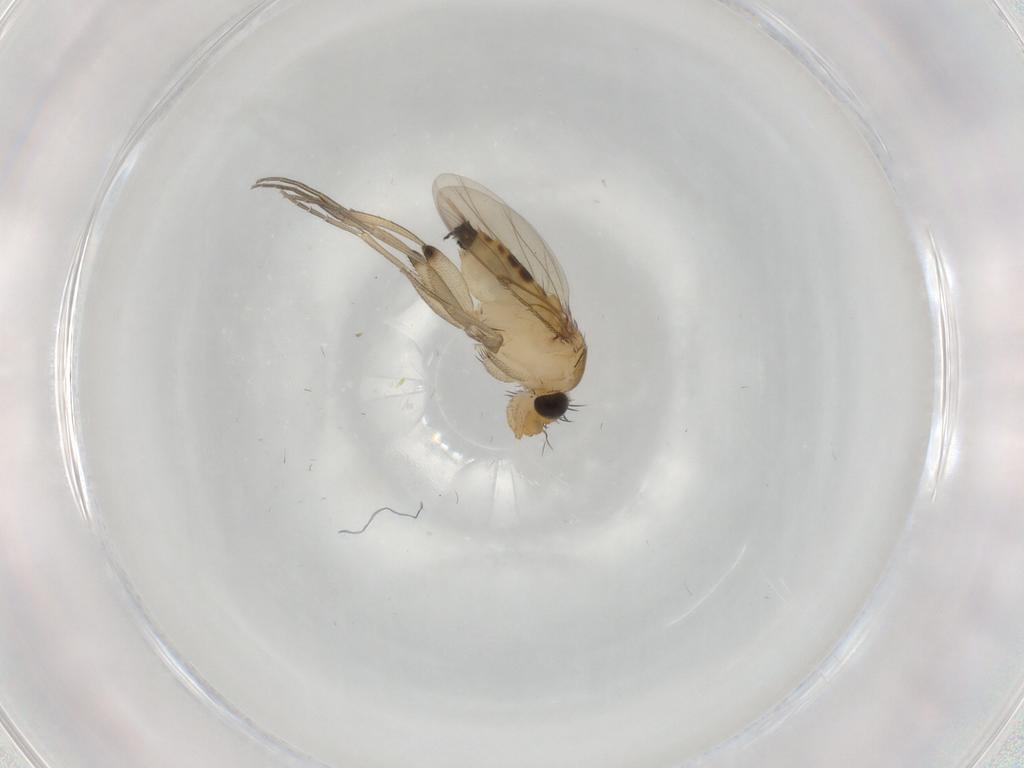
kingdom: Animalia
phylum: Arthropoda
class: Insecta
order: Diptera
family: Phoridae
